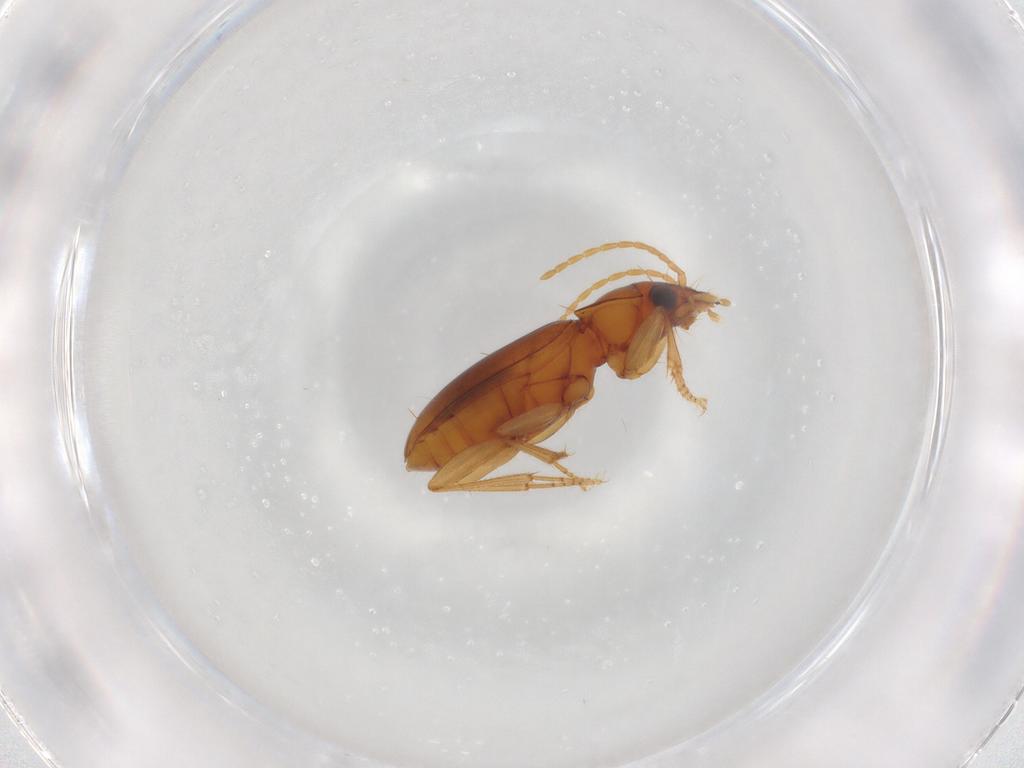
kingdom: Animalia
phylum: Arthropoda
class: Insecta
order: Coleoptera
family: Carabidae
